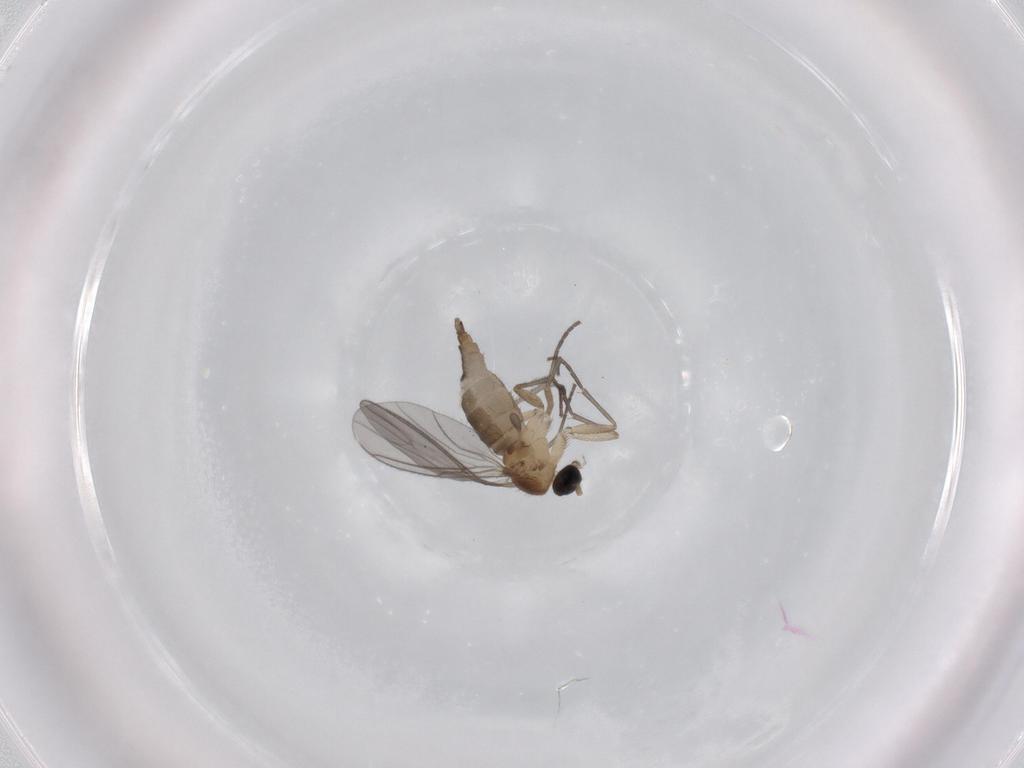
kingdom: Animalia
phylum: Arthropoda
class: Insecta
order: Diptera
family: Sciaridae
